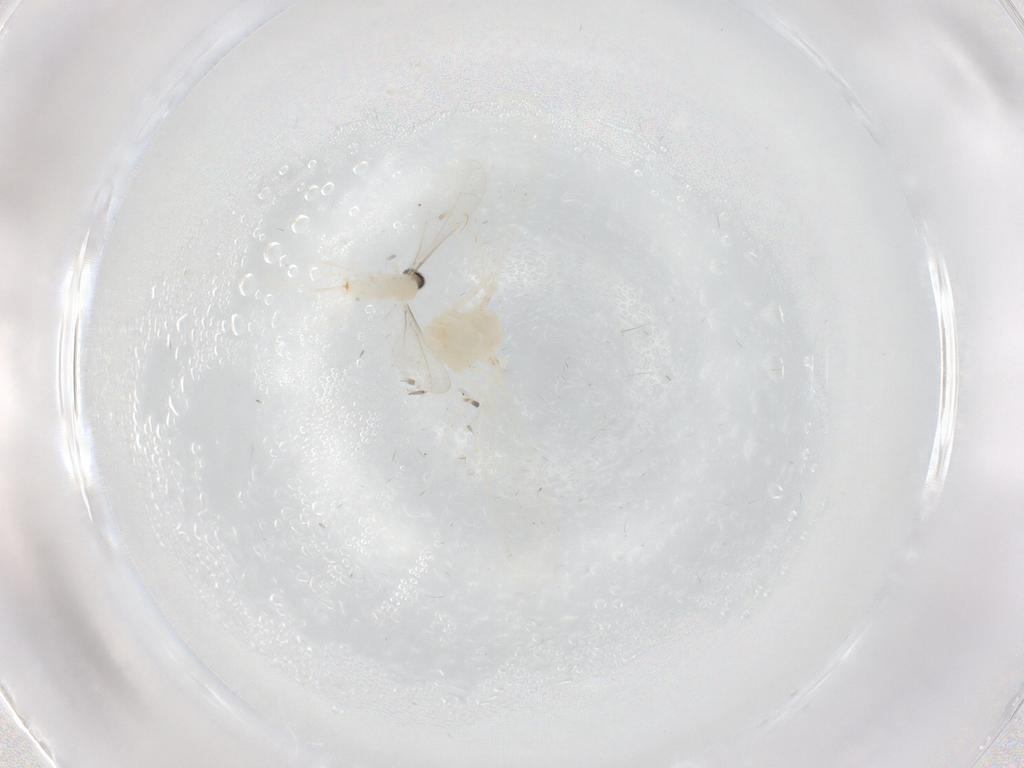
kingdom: Animalia
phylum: Arthropoda
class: Insecta
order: Diptera
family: Cecidomyiidae
